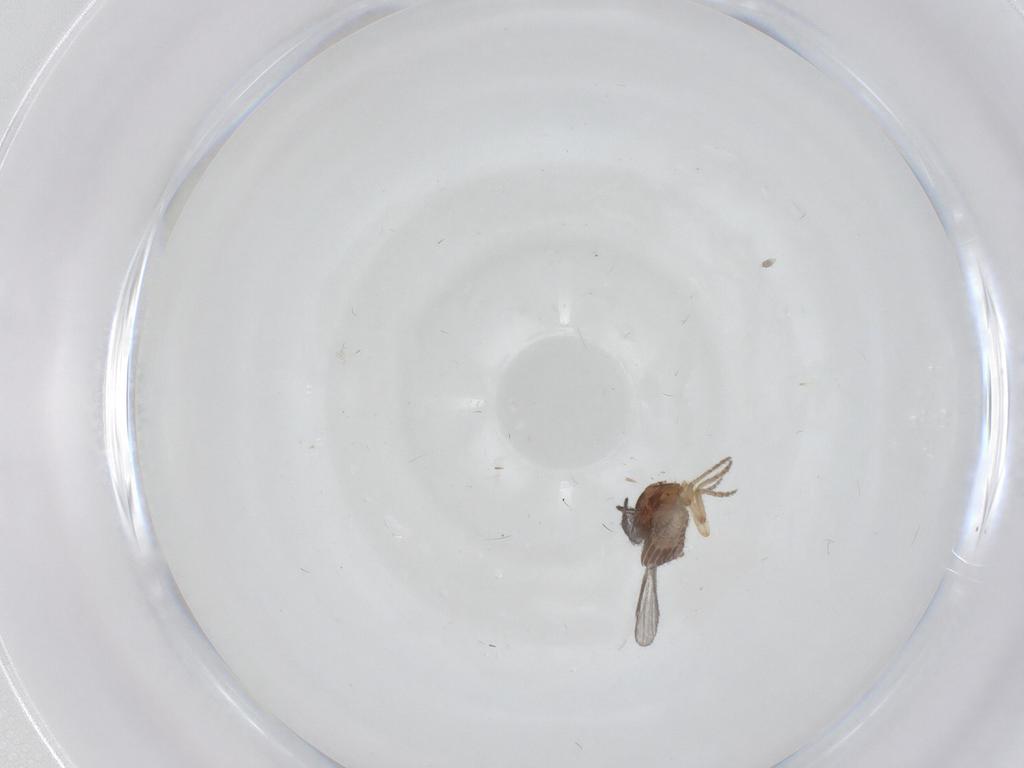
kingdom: Animalia
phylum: Arthropoda
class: Insecta
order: Diptera
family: Ceratopogonidae
